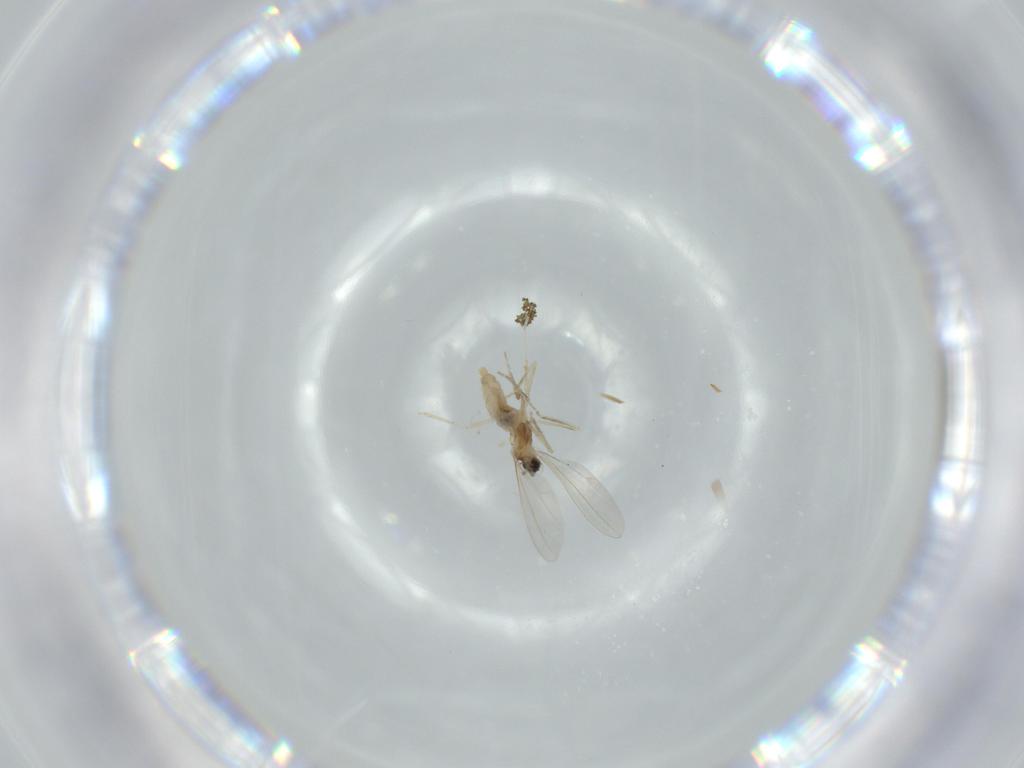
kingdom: Animalia
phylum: Arthropoda
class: Insecta
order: Diptera
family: Cecidomyiidae
